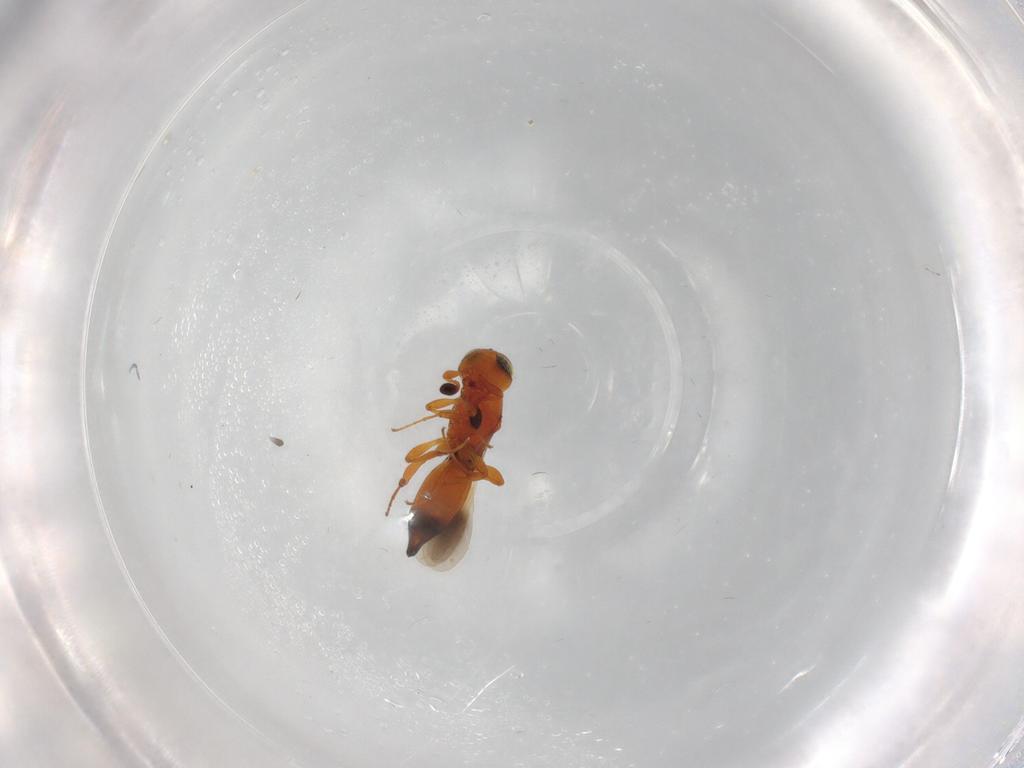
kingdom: Animalia
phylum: Arthropoda
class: Insecta
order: Hymenoptera
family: Platygastridae
